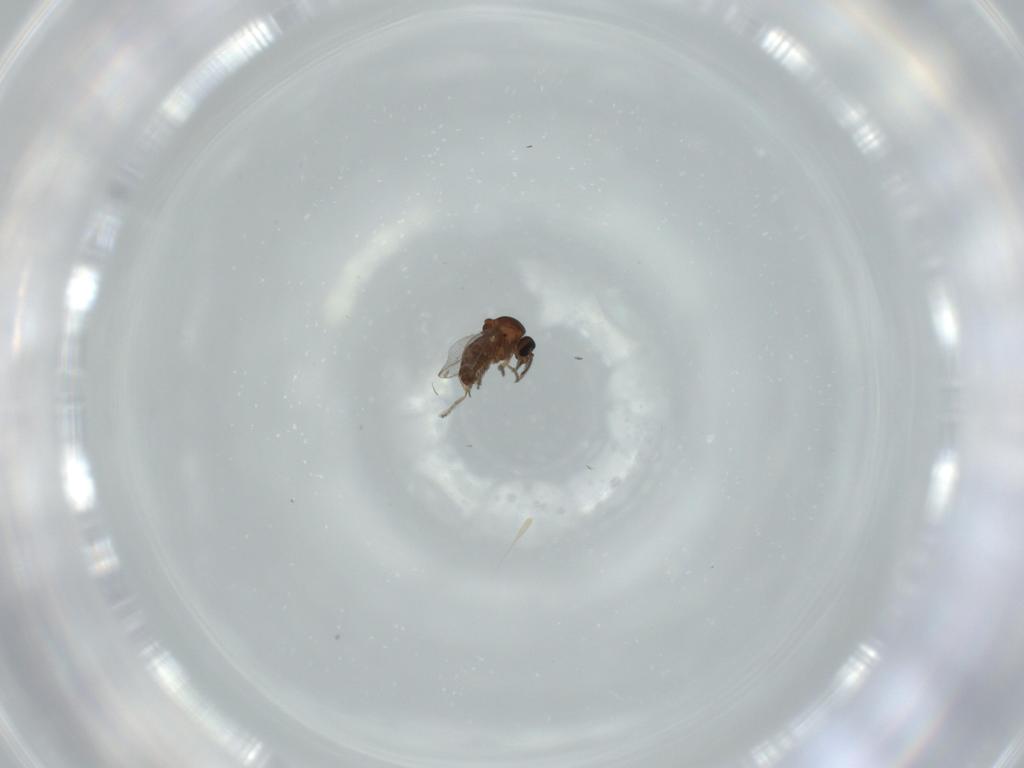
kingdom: Animalia
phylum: Arthropoda
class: Insecta
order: Diptera
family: Ceratopogonidae
